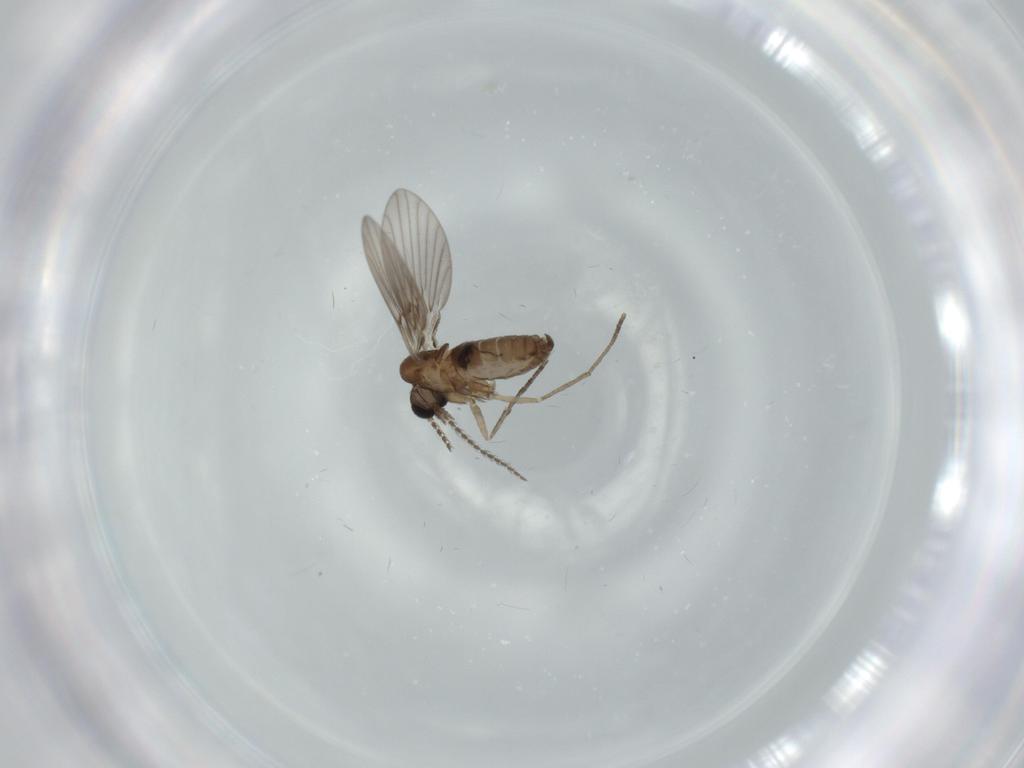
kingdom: Animalia
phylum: Arthropoda
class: Insecta
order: Diptera
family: Psychodidae
